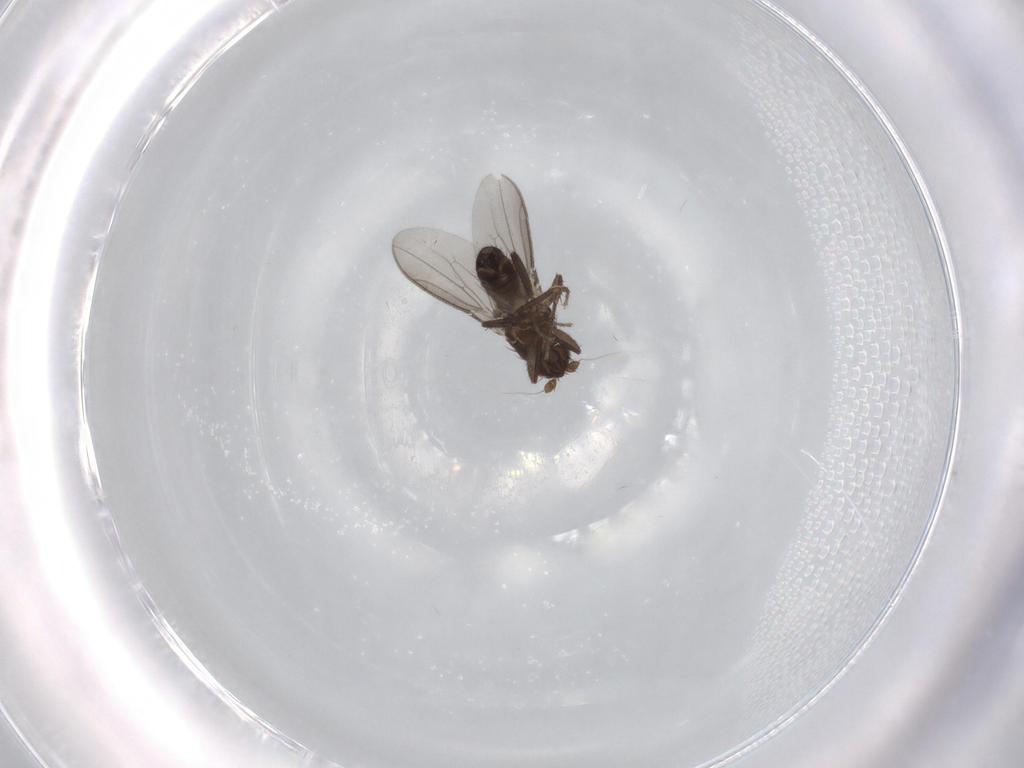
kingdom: Animalia
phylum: Arthropoda
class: Insecta
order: Diptera
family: Sphaeroceridae
